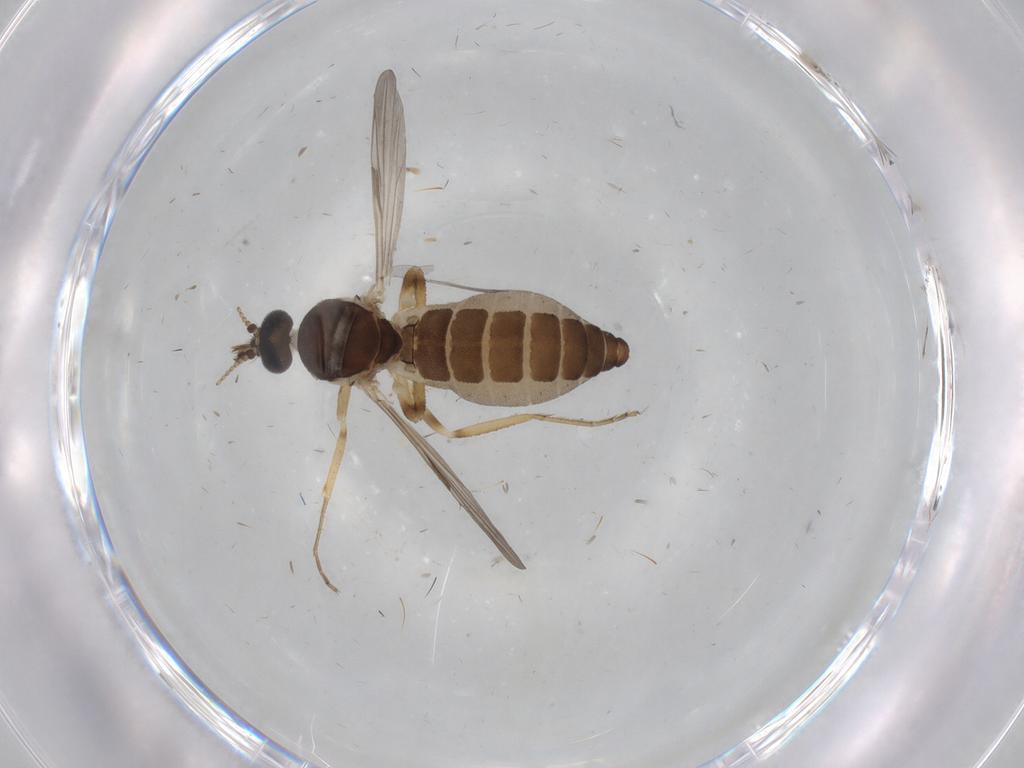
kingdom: Animalia
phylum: Arthropoda
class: Insecta
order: Diptera
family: Ceratopogonidae
